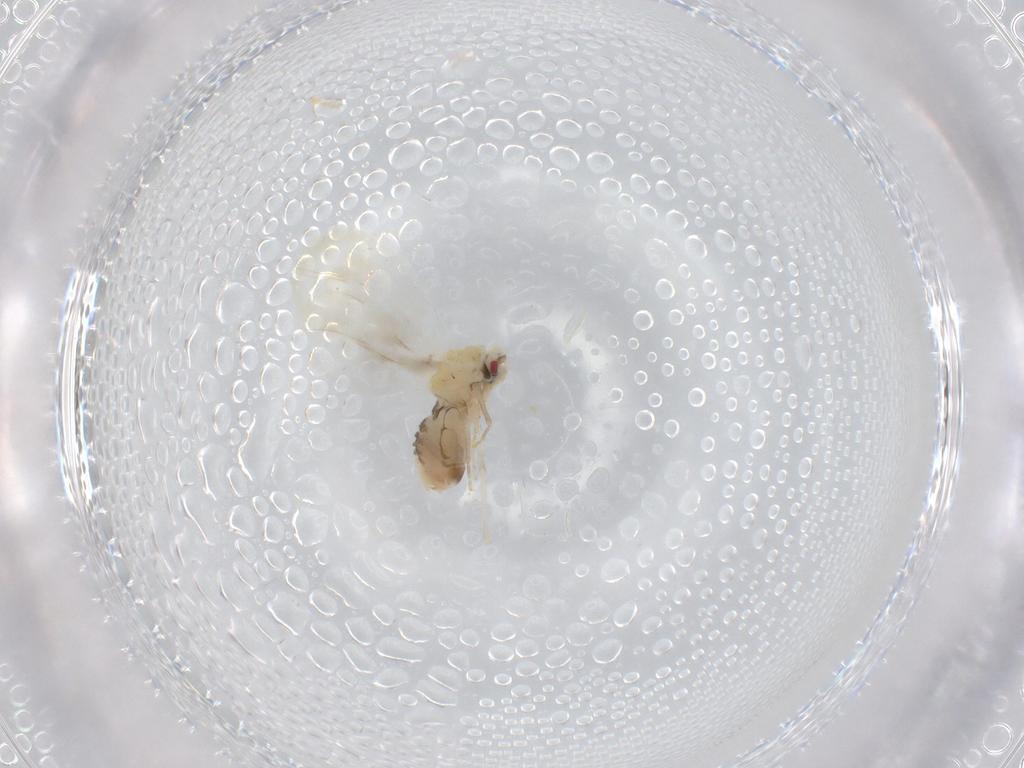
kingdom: Animalia
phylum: Arthropoda
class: Insecta
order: Hemiptera
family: Aleyrodidae
